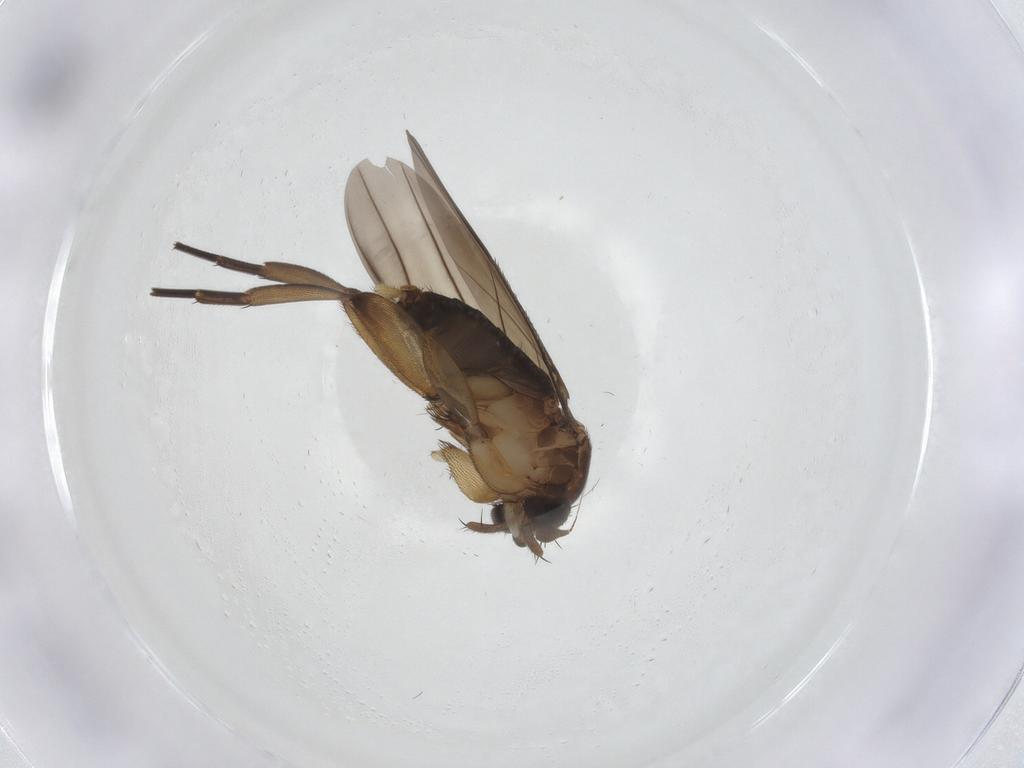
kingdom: Animalia
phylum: Arthropoda
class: Insecta
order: Diptera
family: Phoridae
